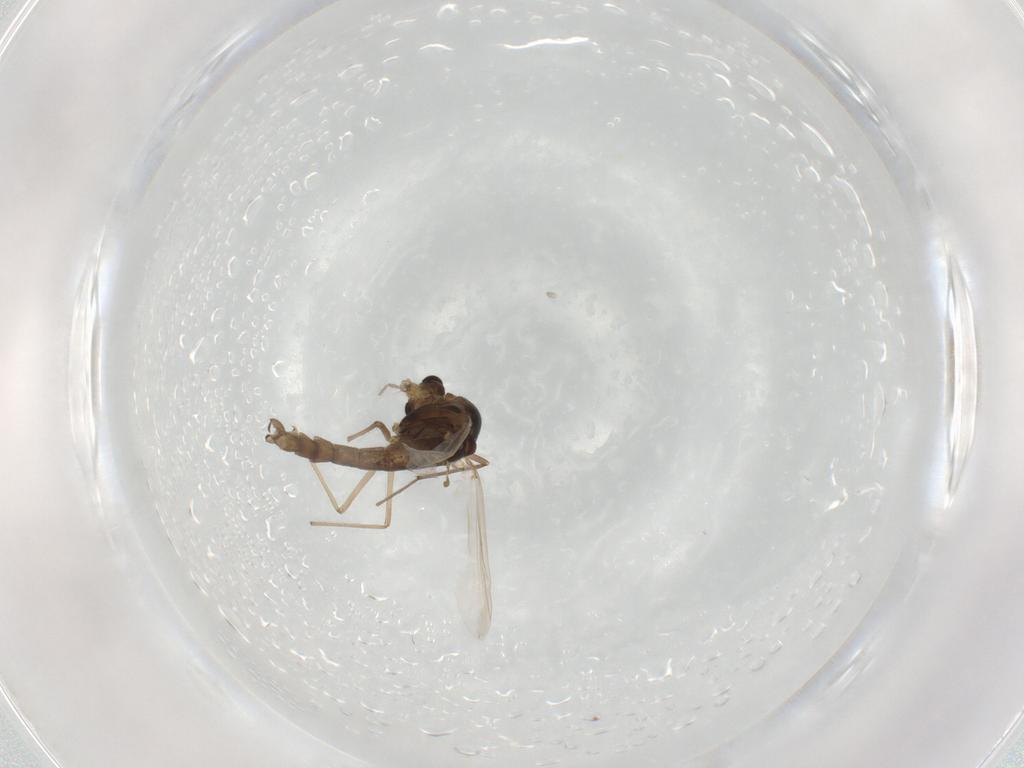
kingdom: Animalia
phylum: Arthropoda
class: Insecta
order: Diptera
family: Chironomidae
